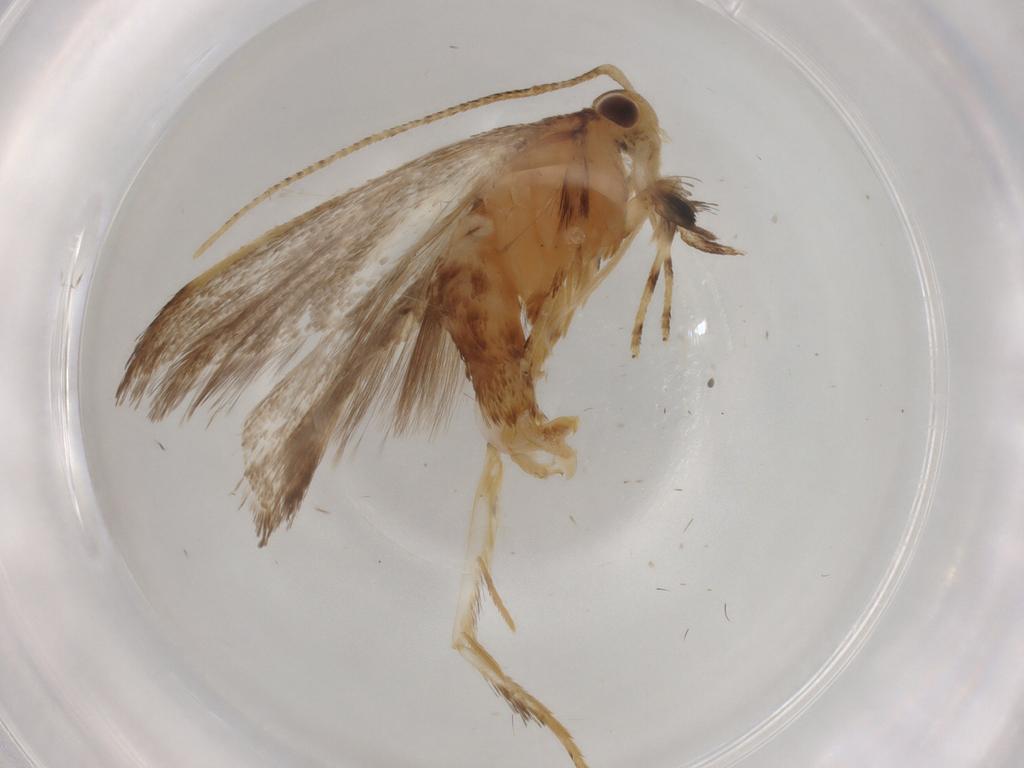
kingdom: Animalia
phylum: Arthropoda
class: Insecta
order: Lepidoptera
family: Lecithoceridae
